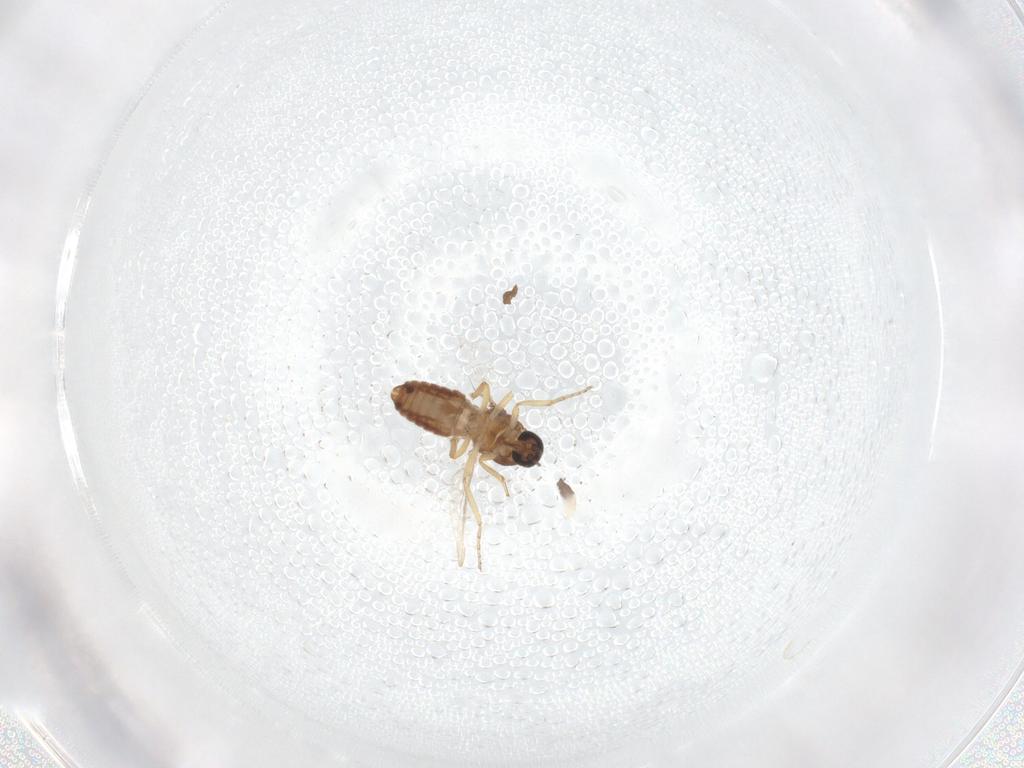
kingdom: Animalia
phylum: Arthropoda
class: Insecta
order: Diptera
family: Ceratopogonidae
